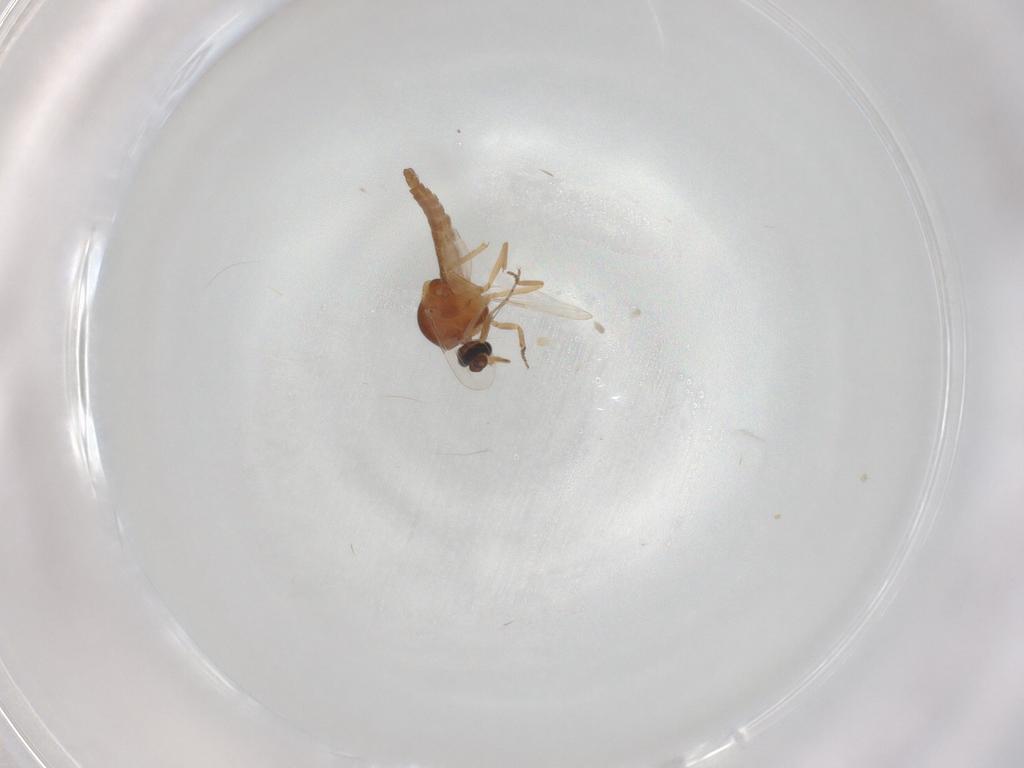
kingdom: Animalia
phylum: Arthropoda
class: Insecta
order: Diptera
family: Ceratopogonidae
